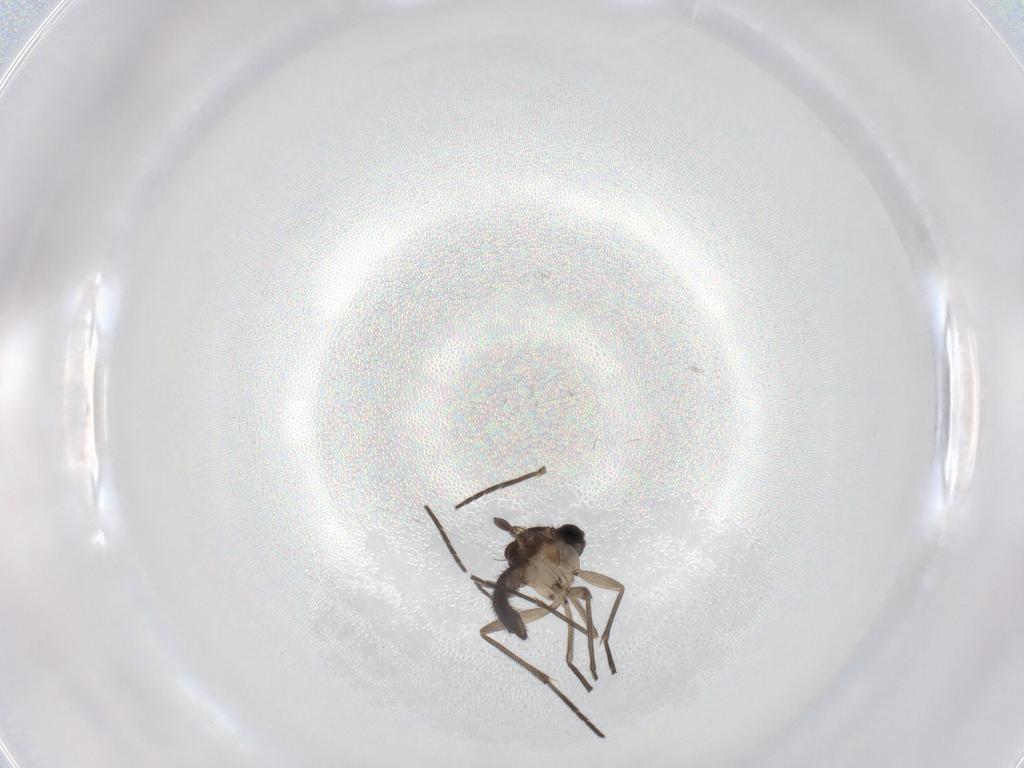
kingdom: Animalia
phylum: Arthropoda
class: Insecta
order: Diptera
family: Sciaridae
